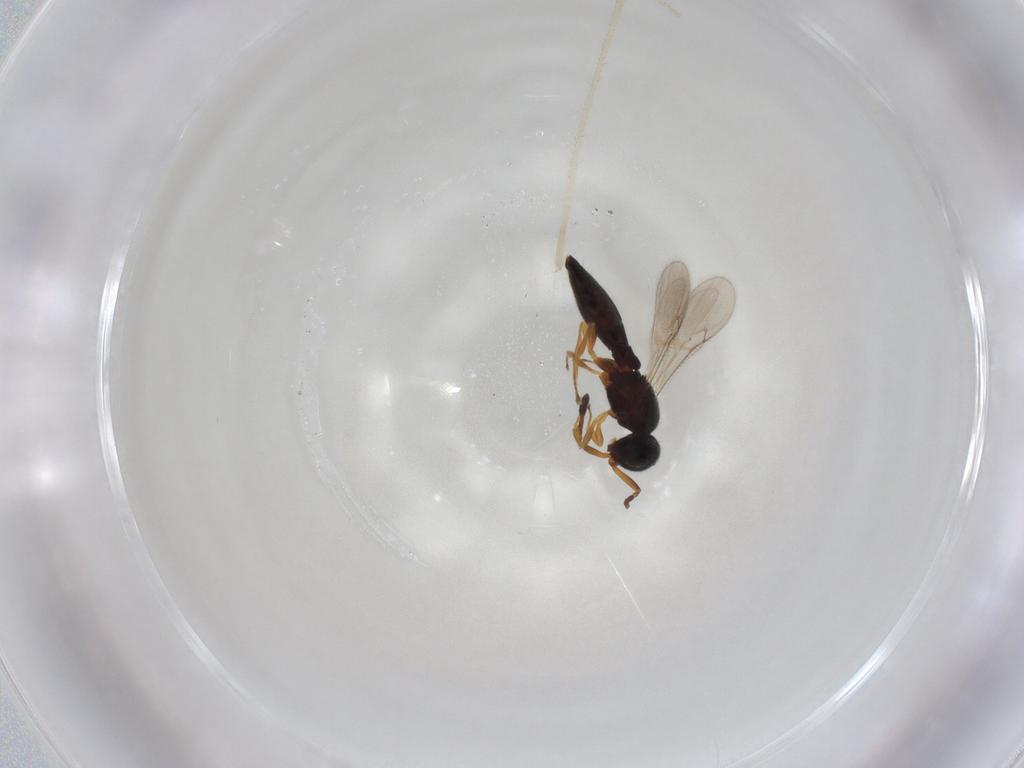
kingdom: Animalia
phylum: Arthropoda
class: Insecta
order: Hymenoptera
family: Scelionidae
